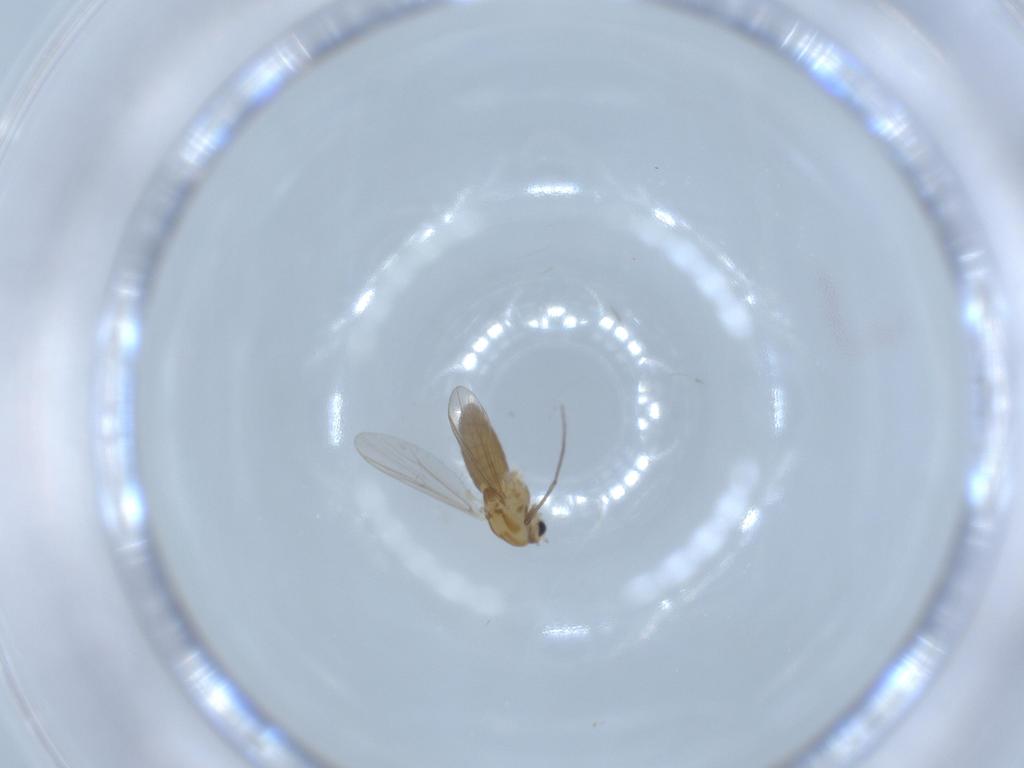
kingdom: Animalia
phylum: Arthropoda
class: Insecta
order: Diptera
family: Chironomidae
